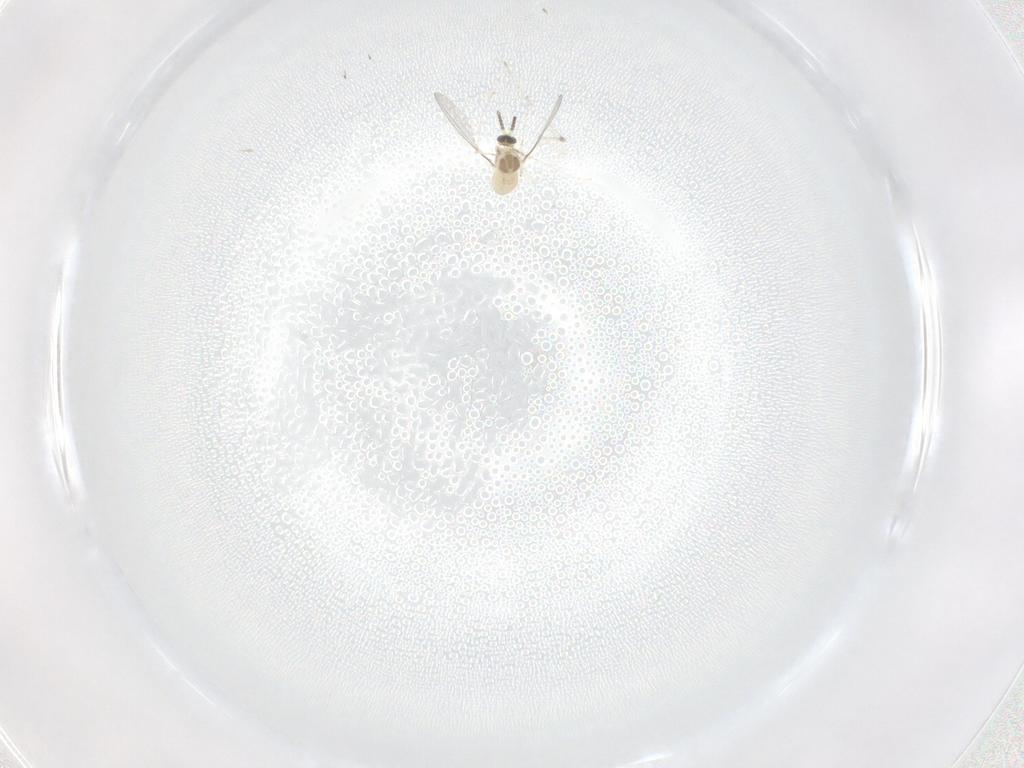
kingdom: Animalia
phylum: Arthropoda
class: Insecta
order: Diptera
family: Cecidomyiidae
